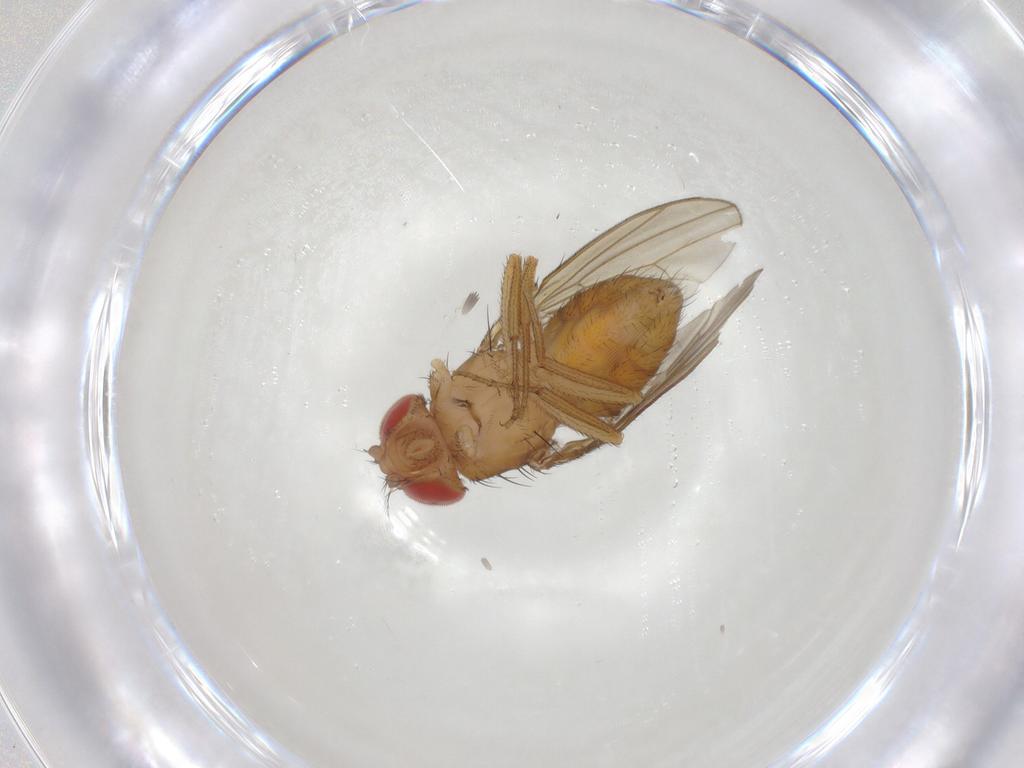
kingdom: Animalia
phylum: Arthropoda
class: Insecta
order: Diptera
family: Drosophilidae
